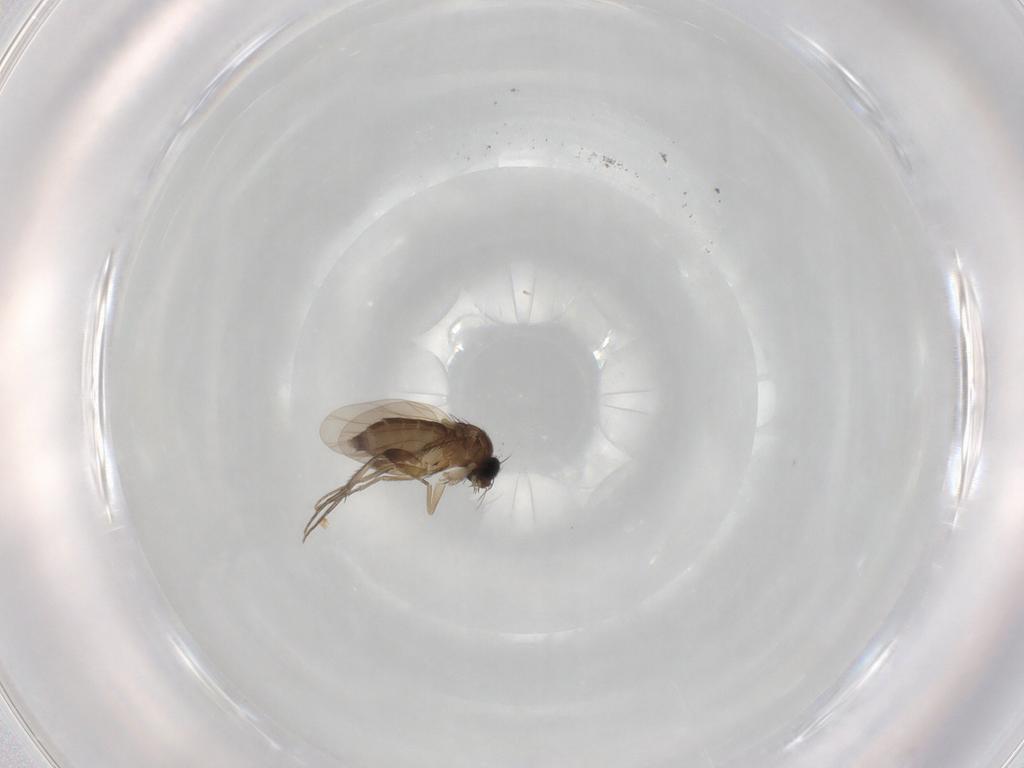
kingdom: Animalia
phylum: Arthropoda
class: Insecta
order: Diptera
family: Phoridae
